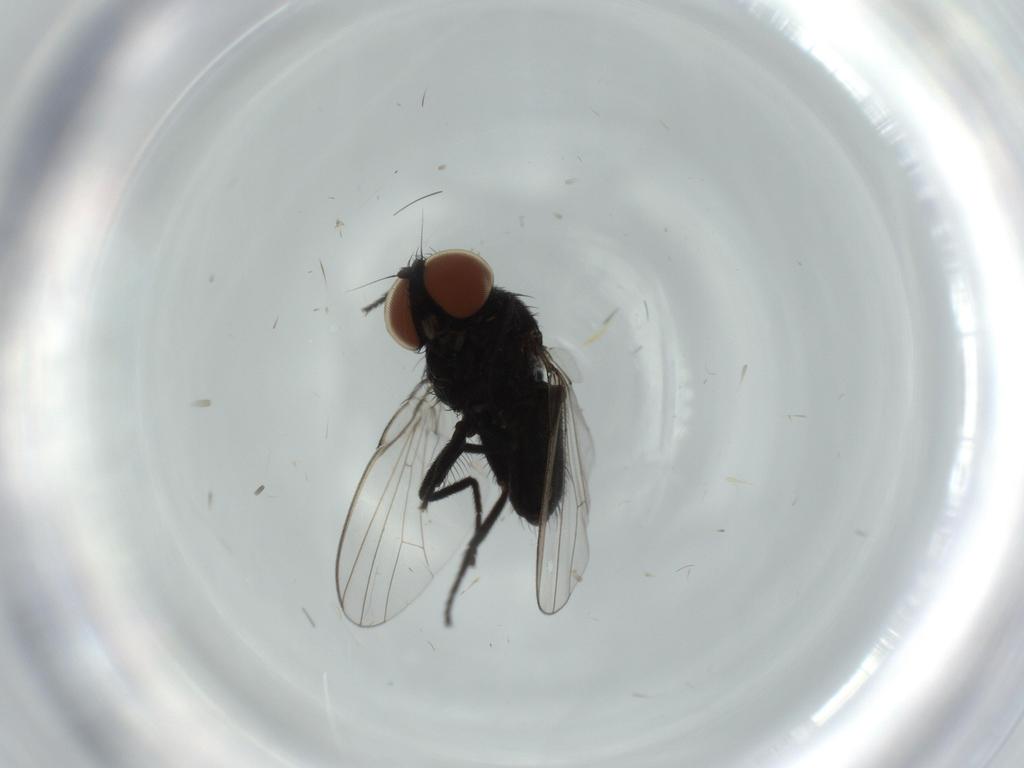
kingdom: Animalia
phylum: Arthropoda
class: Insecta
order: Diptera
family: Milichiidae
